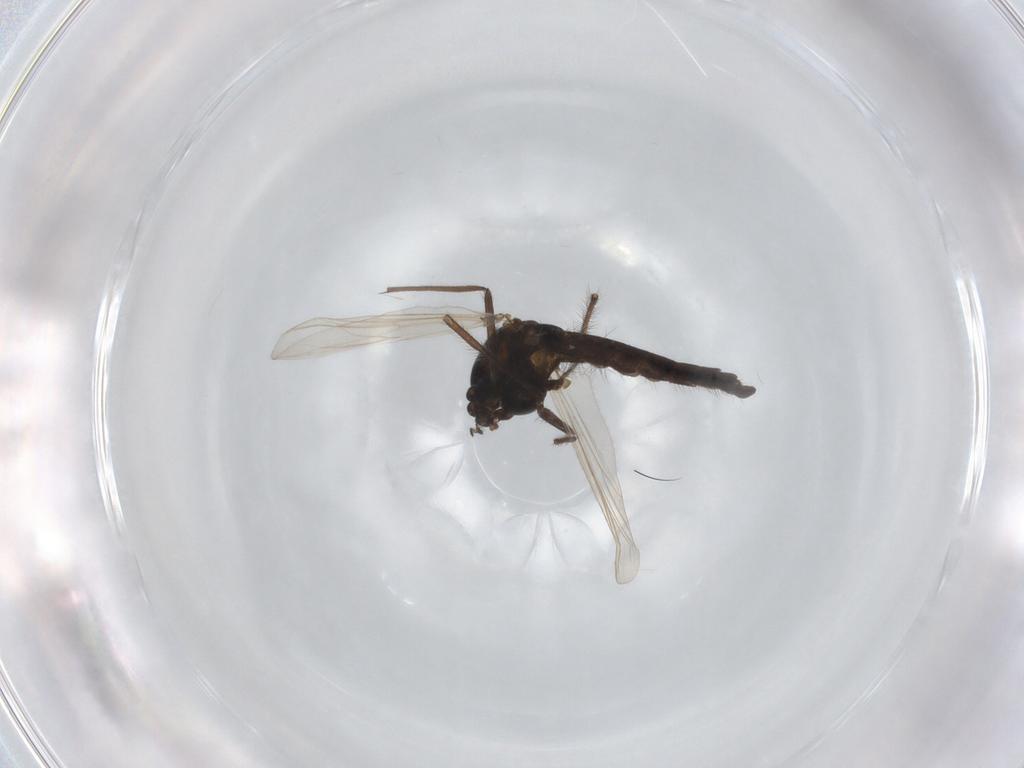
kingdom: Animalia
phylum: Arthropoda
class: Insecta
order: Diptera
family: Chironomidae
